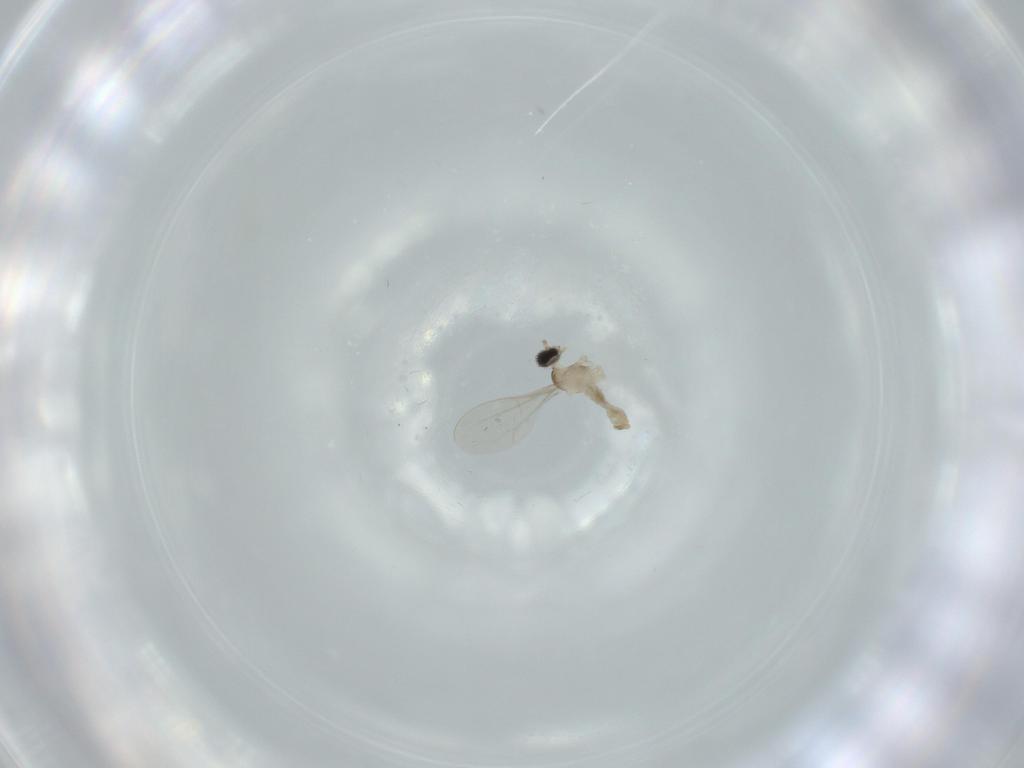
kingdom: Animalia
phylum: Arthropoda
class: Insecta
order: Diptera
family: Cecidomyiidae
